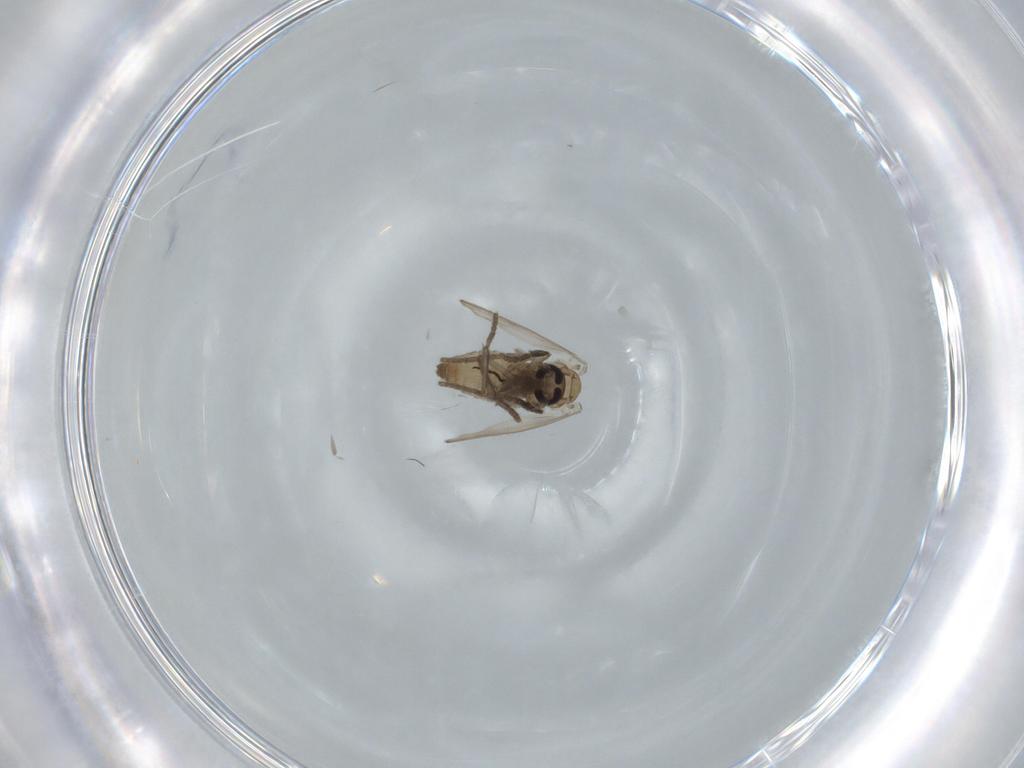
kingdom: Animalia
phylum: Arthropoda
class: Insecta
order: Diptera
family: Psychodidae
